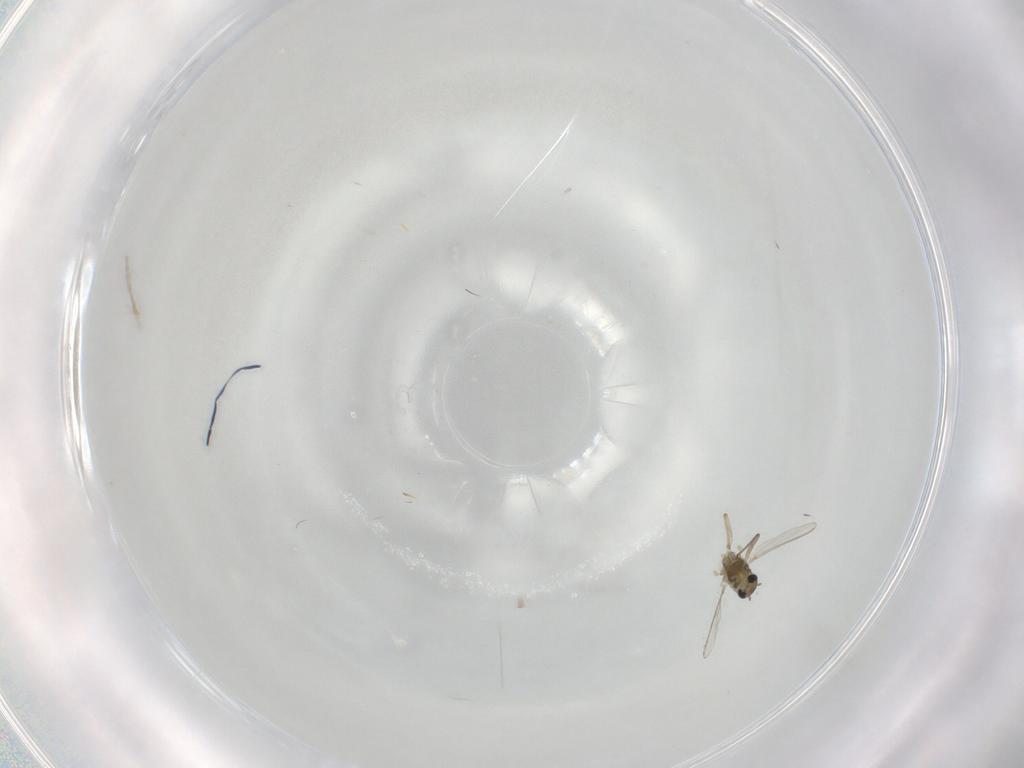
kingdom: Animalia
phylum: Arthropoda
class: Insecta
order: Diptera
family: Chironomidae
